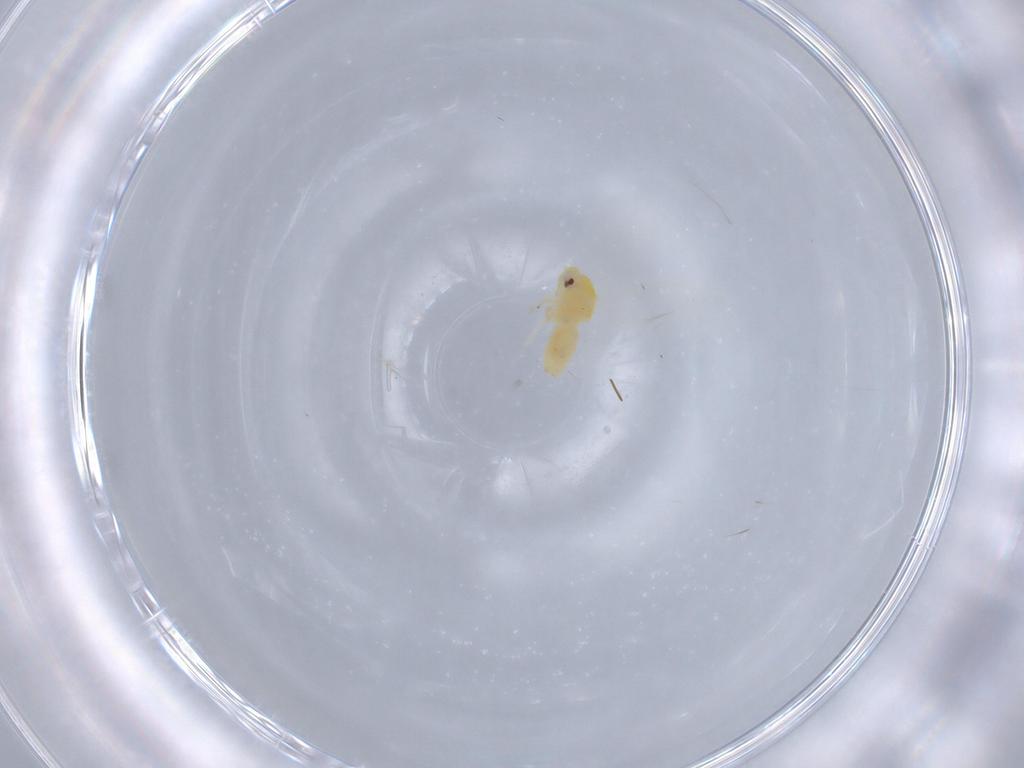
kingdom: Animalia
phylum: Arthropoda
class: Insecta
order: Hemiptera
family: Aleyrodidae
